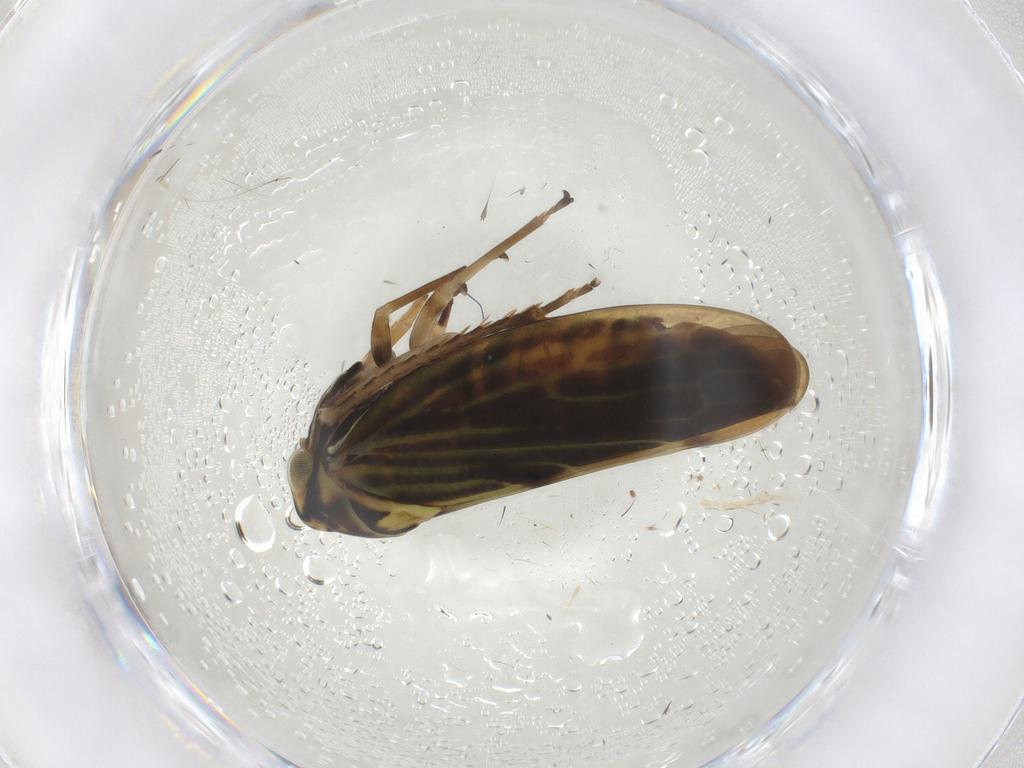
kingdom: Animalia
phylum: Arthropoda
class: Insecta
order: Hemiptera
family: Cicadellidae
